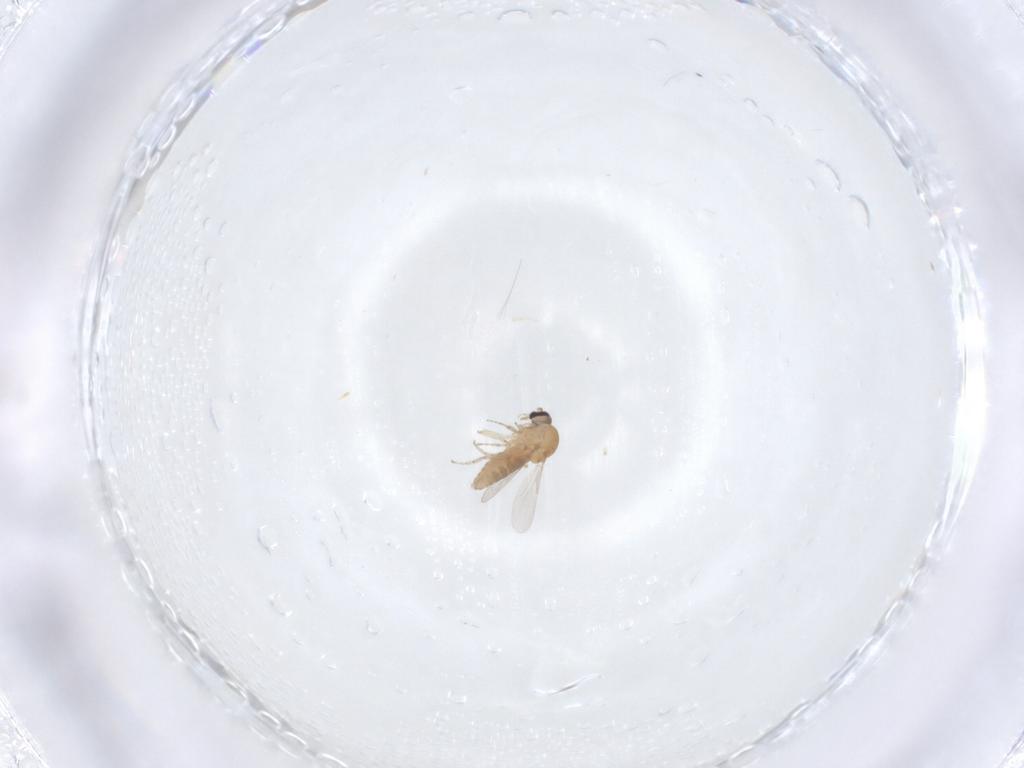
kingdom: Animalia
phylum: Arthropoda
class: Insecta
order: Diptera
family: Ceratopogonidae
